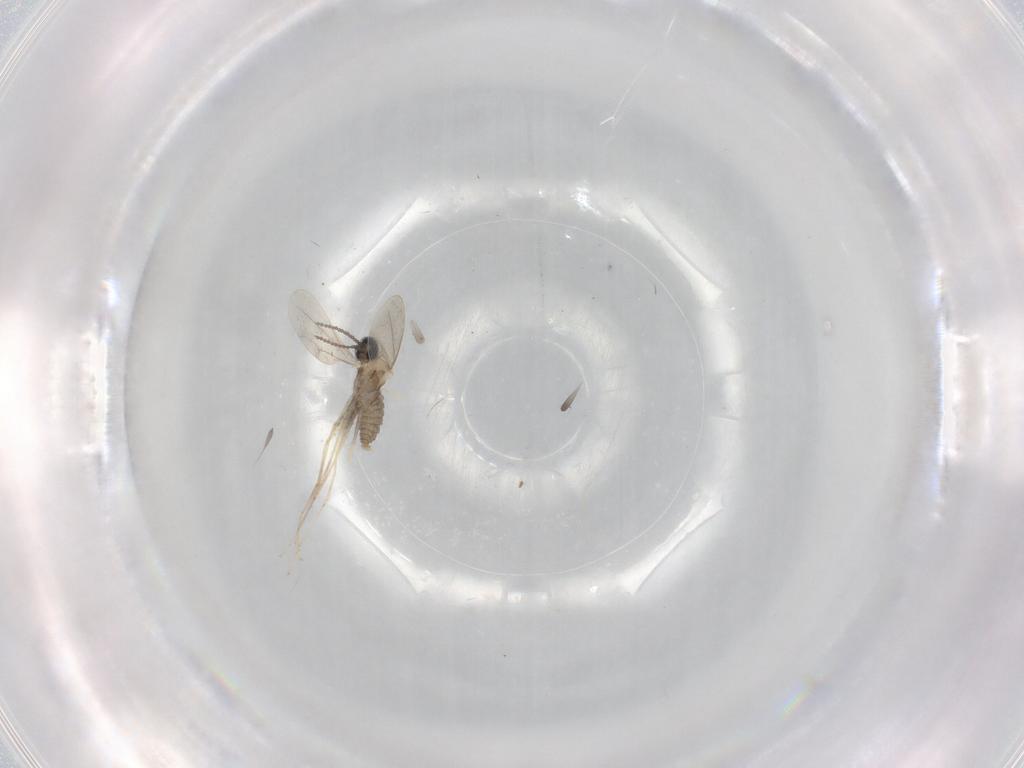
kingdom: Animalia
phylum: Arthropoda
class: Insecta
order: Diptera
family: Cecidomyiidae
